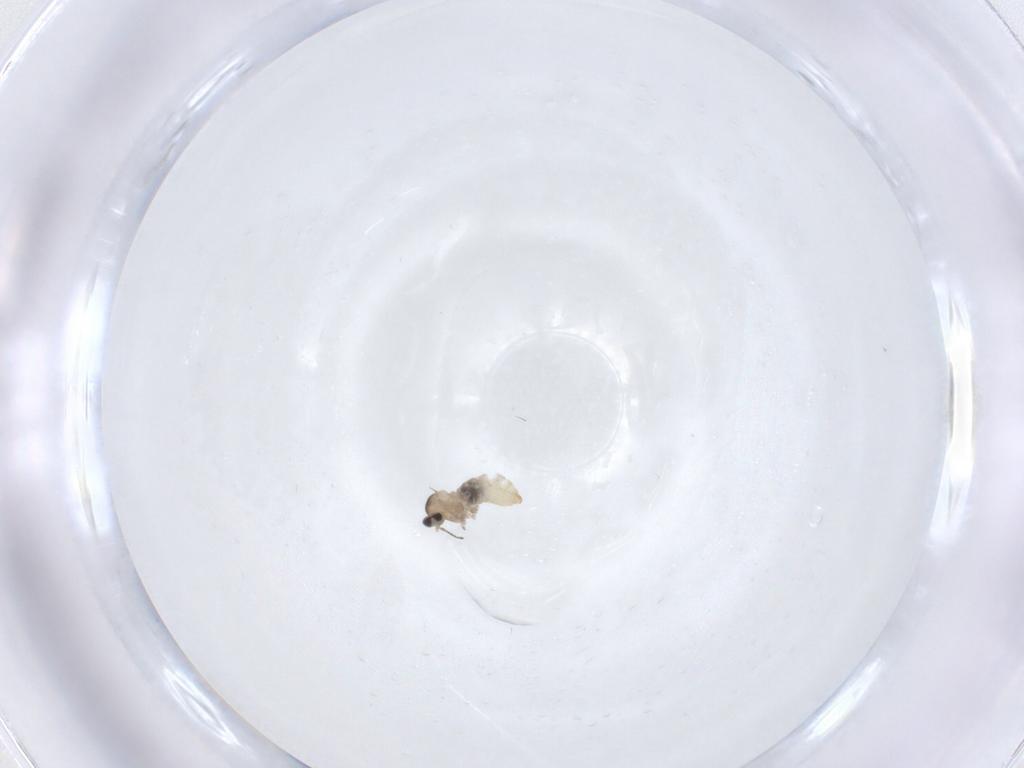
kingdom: Animalia
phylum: Arthropoda
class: Insecta
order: Diptera
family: Cecidomyiidae
